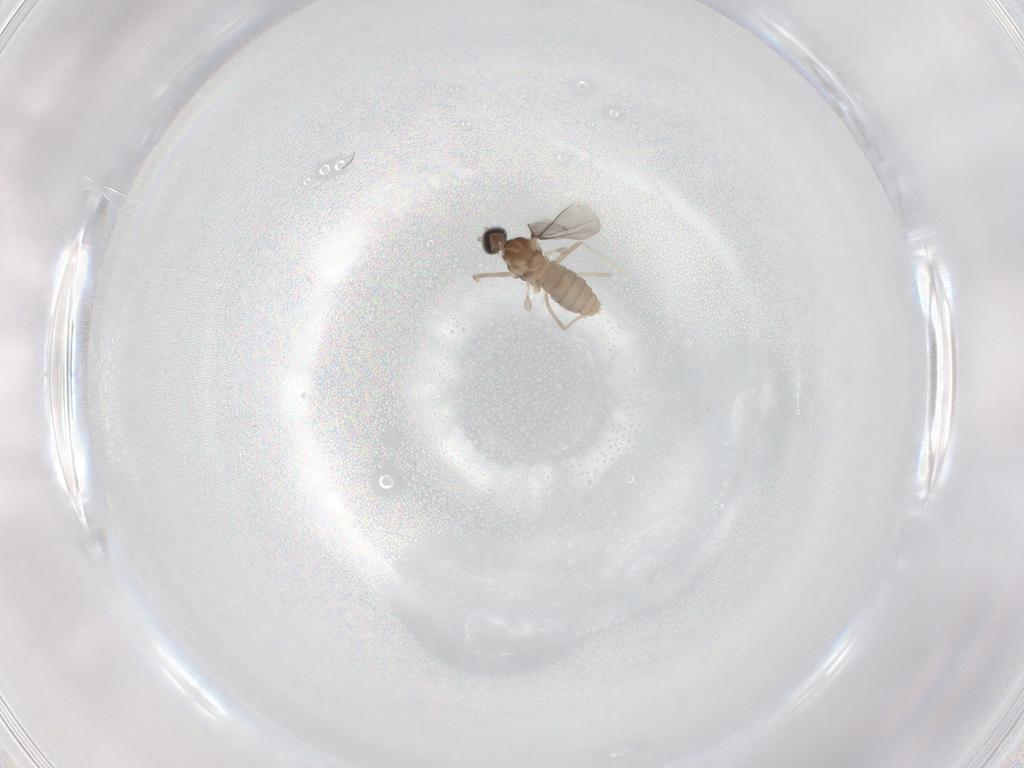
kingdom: Animalia
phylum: Arthropoda
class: Insecta
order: Diptera
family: Cecidomyiidae
